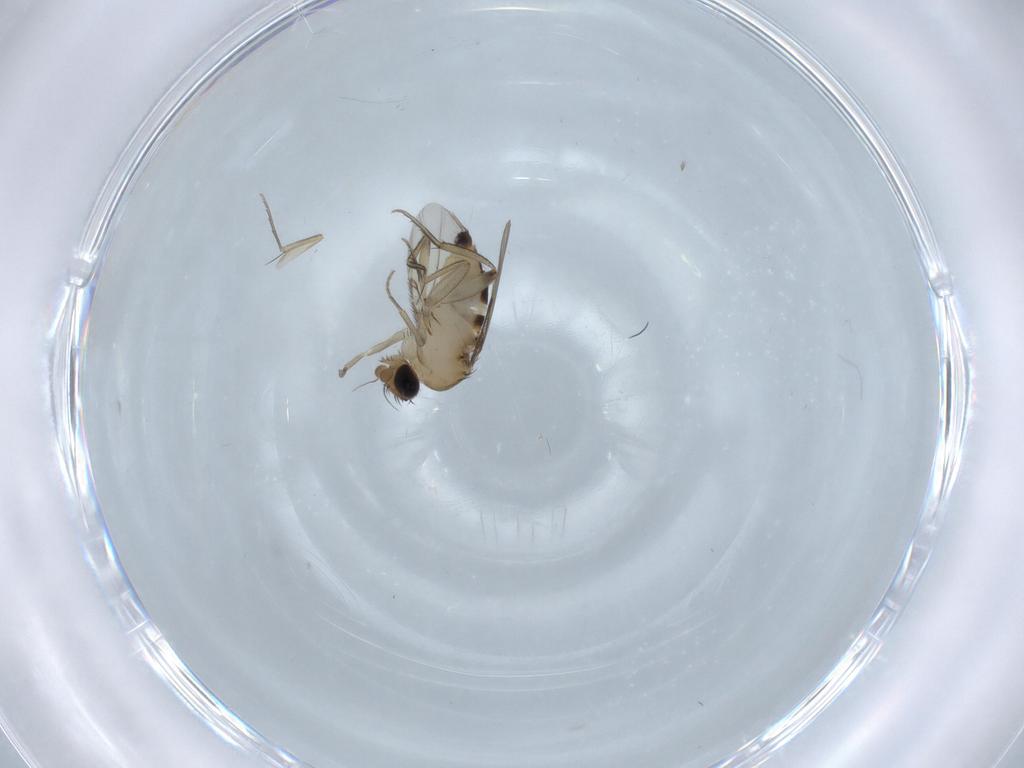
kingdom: Animalia
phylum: Arthropoda
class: Insecta
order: Diptera
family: Phoridae
